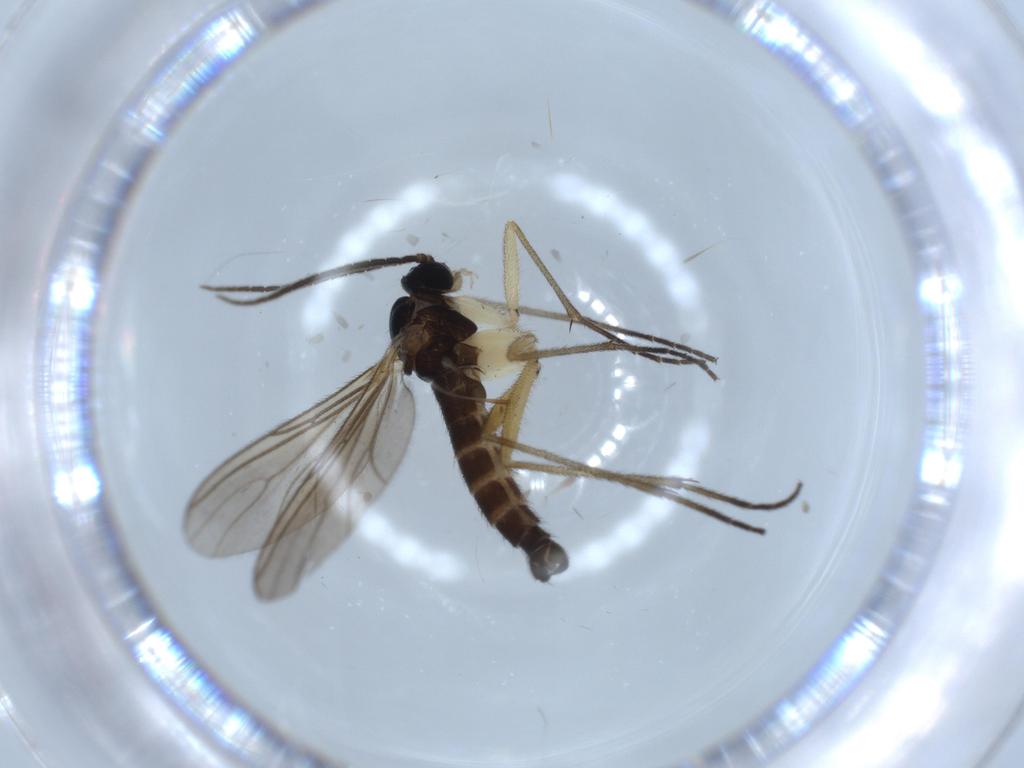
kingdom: Animalia
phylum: Arthropoda
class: Insecta
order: Diptera
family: Sciaridae
